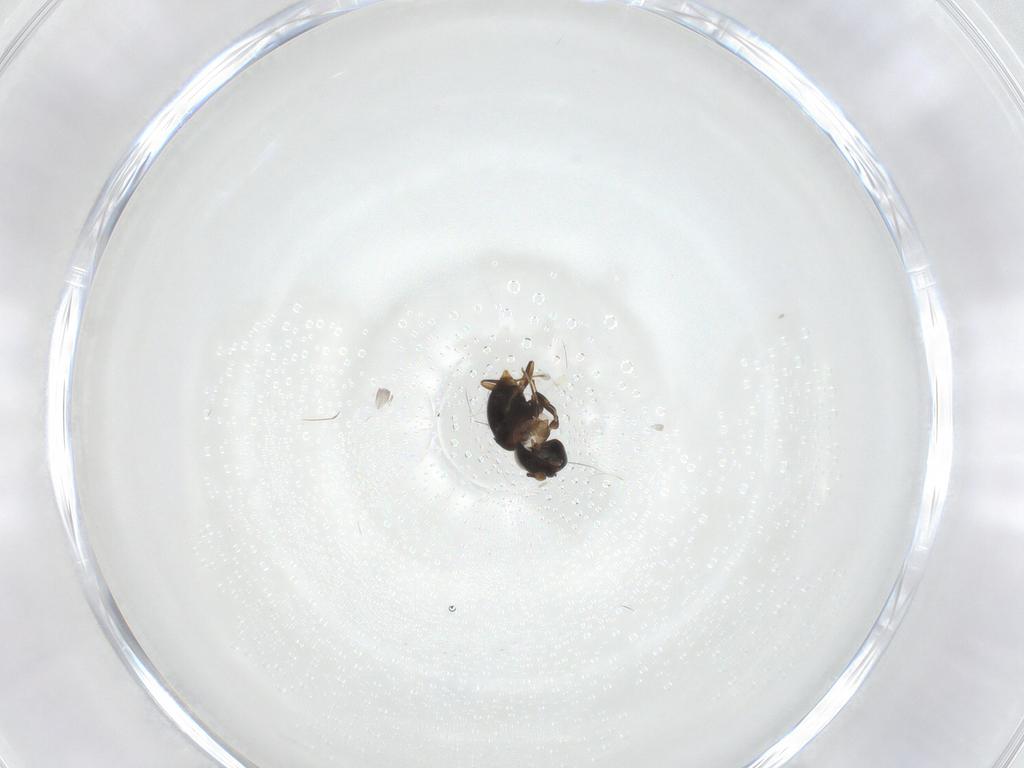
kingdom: Animalia
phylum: Arthropoda
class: Insecta
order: Hymenoptera
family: Scelionidae
